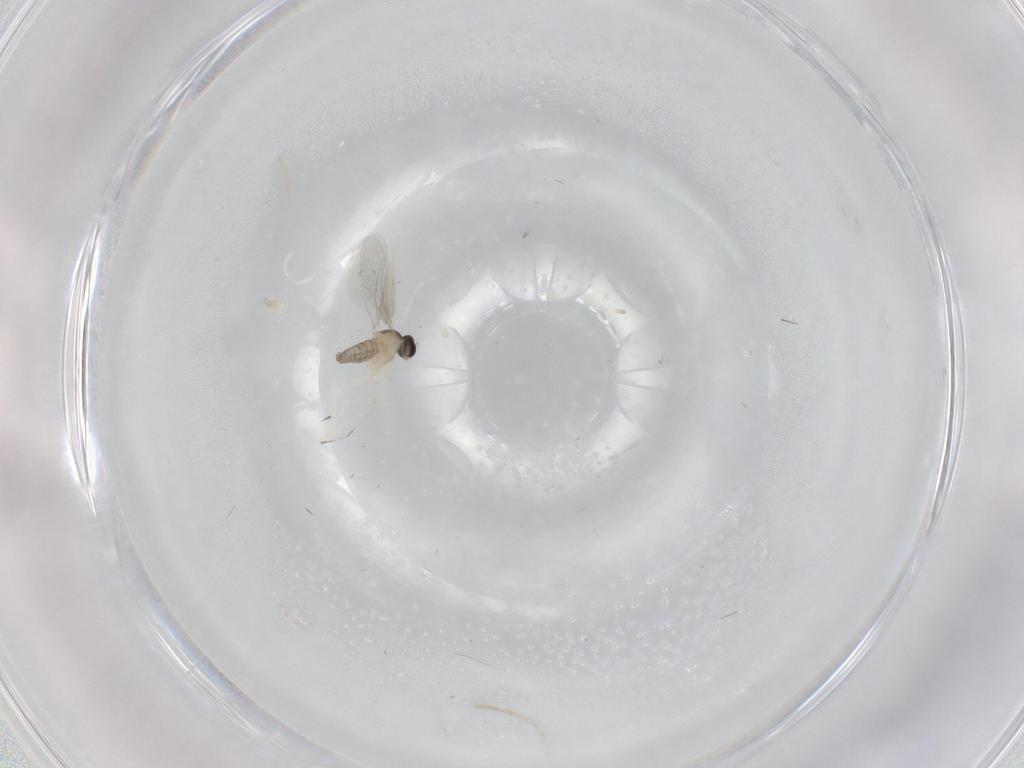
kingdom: Animalia
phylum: Arthropoda
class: Insecta
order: Diptera
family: Cecidomyiidae
